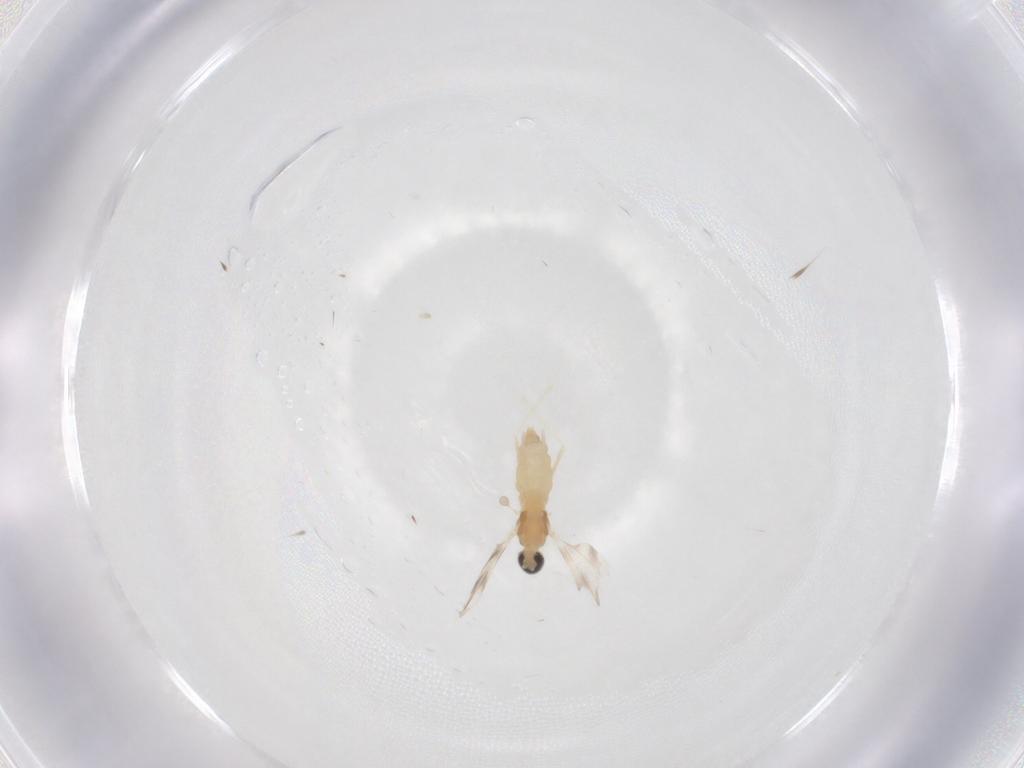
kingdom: Animalia
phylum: Arthropoda
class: Insecta
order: Diptera
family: Cecidomyiidae
